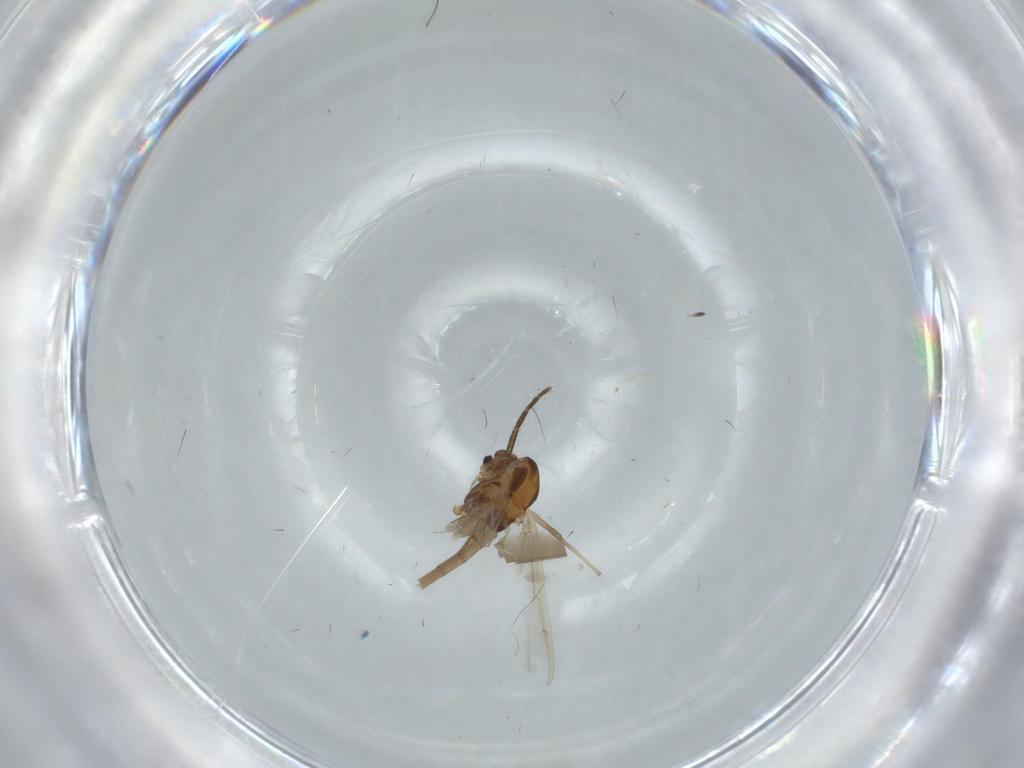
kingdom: Animalia
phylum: Arthropoda
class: Insecta
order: Diptera
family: Chironomidae
